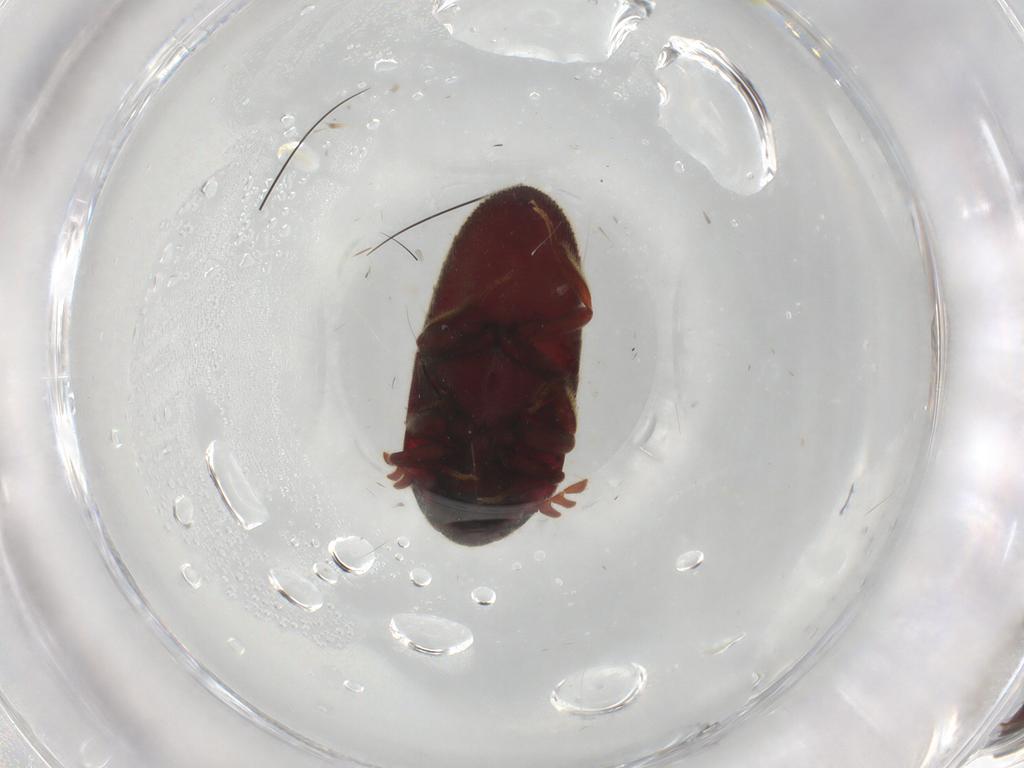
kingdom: Animalia
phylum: Arthropoda
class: Insecta
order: Coleoptera
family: Throscidae
